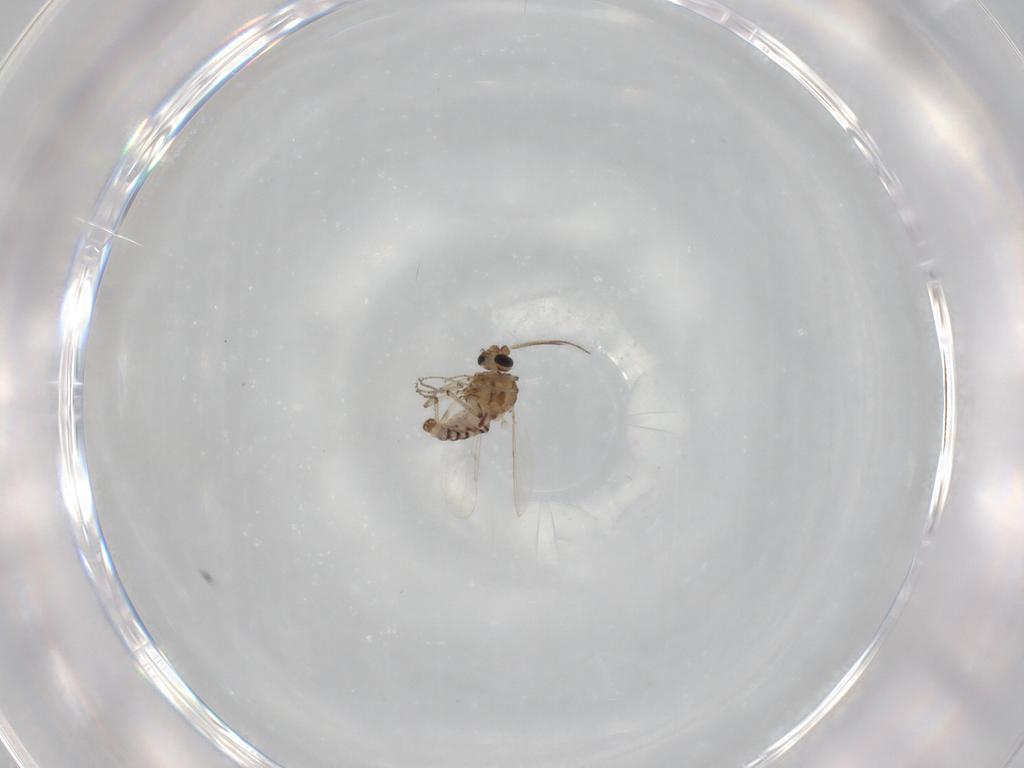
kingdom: Animalia
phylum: Arthropoda
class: Insecta
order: Diptera
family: Ceratopogonidae
